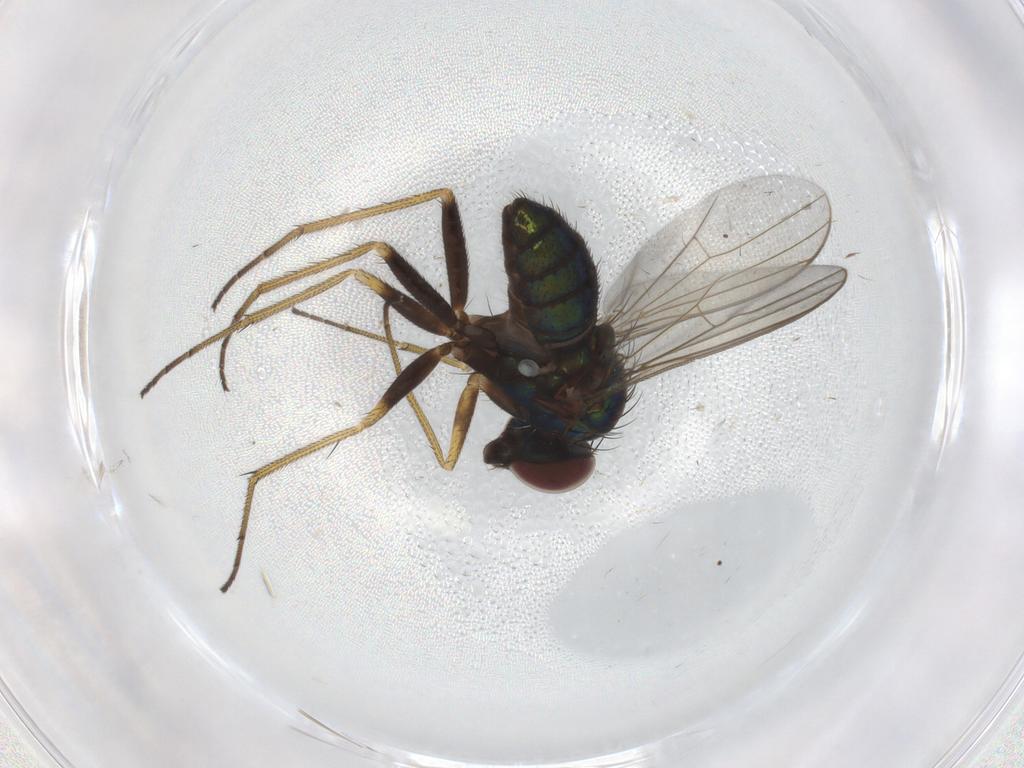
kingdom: Animalia
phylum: Arthropoda
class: Insecta
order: Diptera
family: Dolichopodidae
